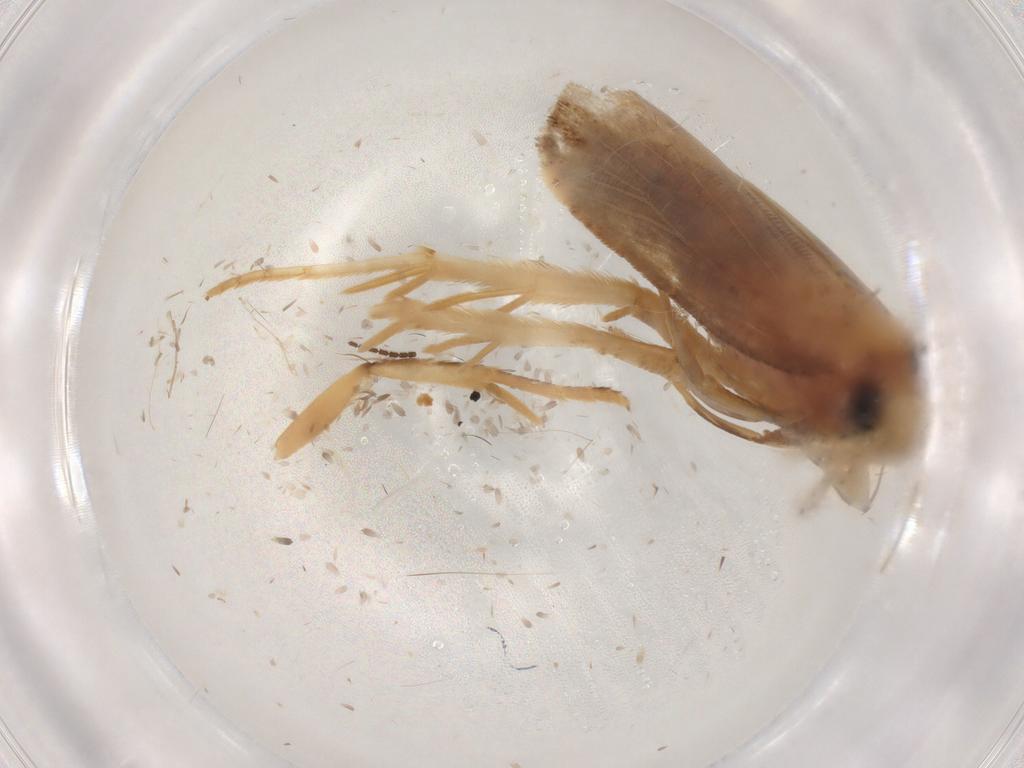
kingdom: Animalia
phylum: Arthropoda
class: Insecta
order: Lepidoptera
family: Gelechiidae
